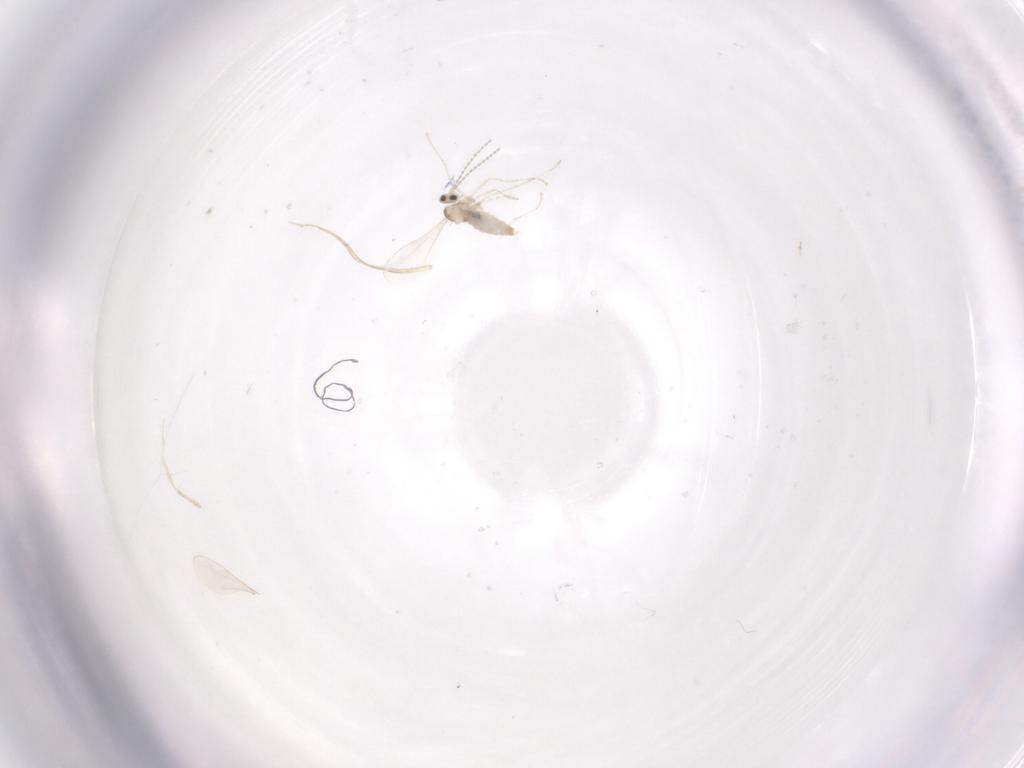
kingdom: Animalia
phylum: Arthropoda
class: Insecta
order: Diptera
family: Cecidomyiidae
